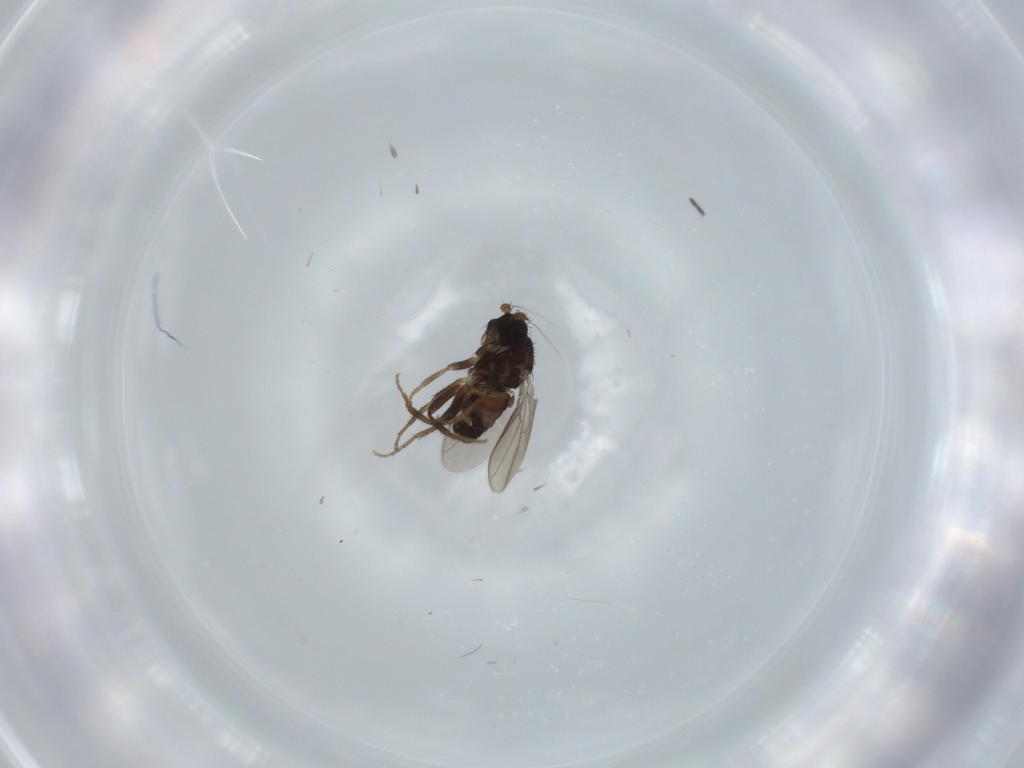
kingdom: Animalia
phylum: Arthropoda
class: Insecta
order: Diptera
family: Sphaeroceridae
